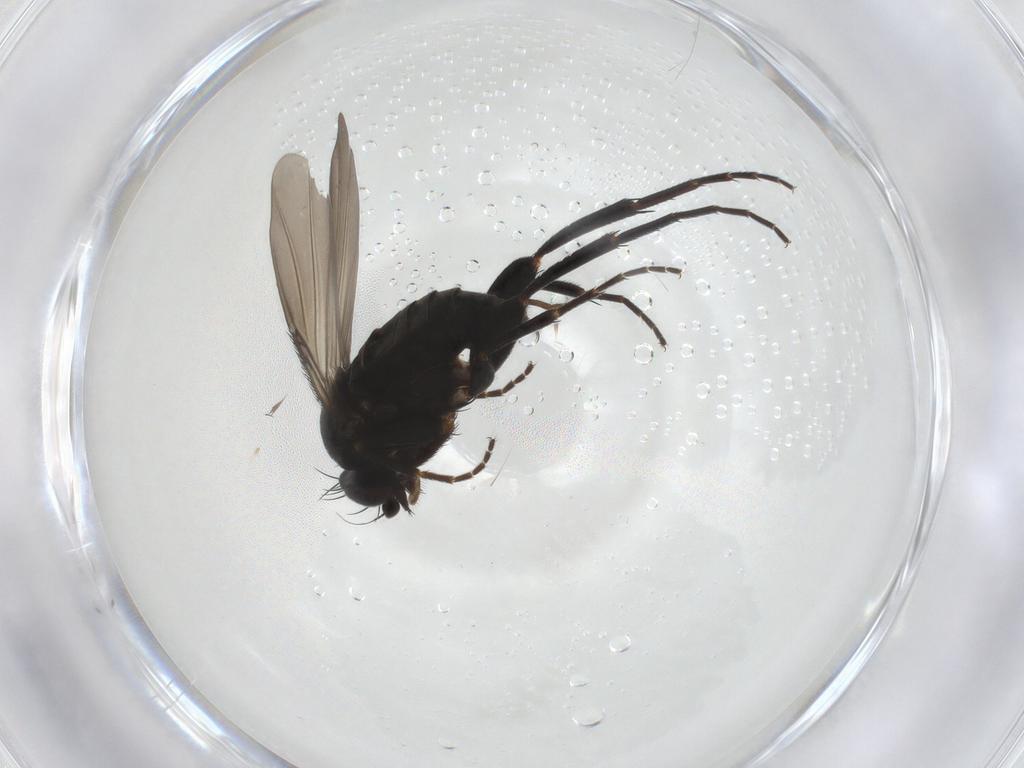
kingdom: Animalia
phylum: Arthropoda
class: Insecta
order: Diptera
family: Phoridae
